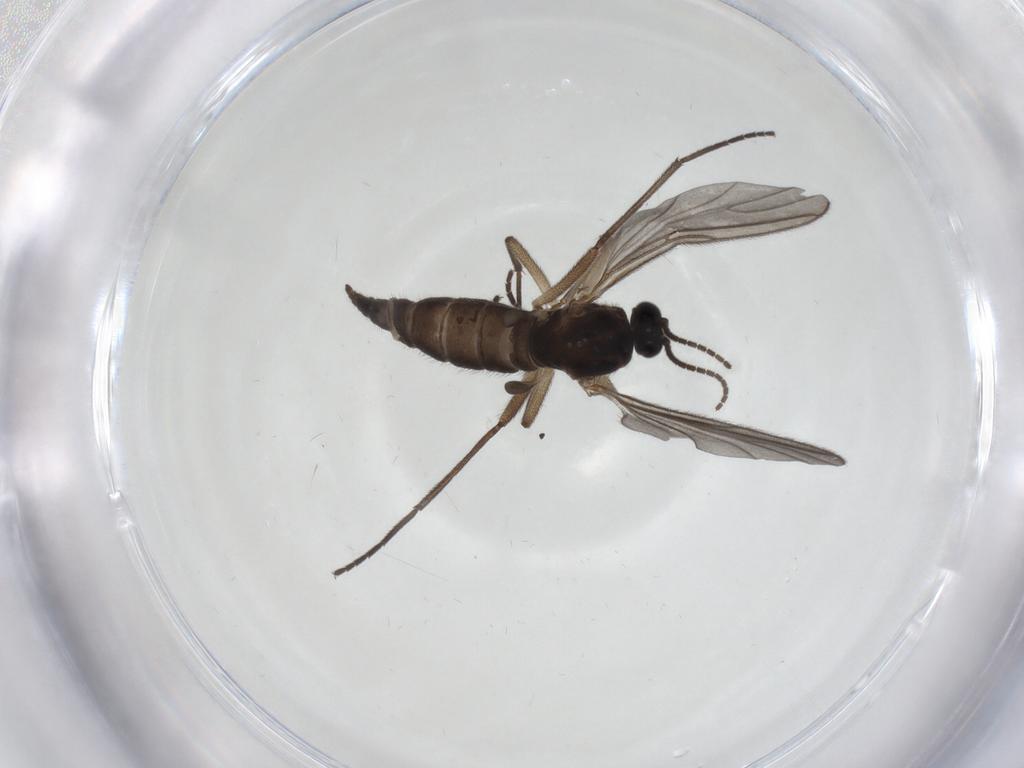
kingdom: Animalia
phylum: Arthropoda
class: Insecta
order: Diptera
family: Sciaridae
